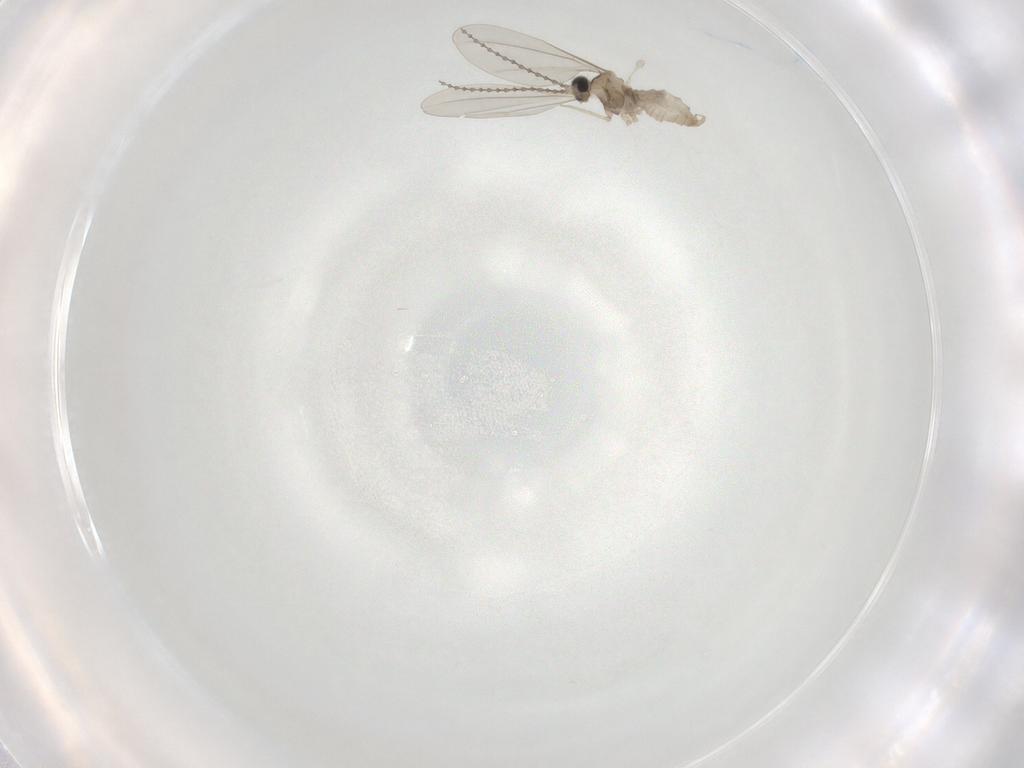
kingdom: Animalia
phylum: Arthropoda
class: Insecta
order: Diptera
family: Cecidomyiidae
